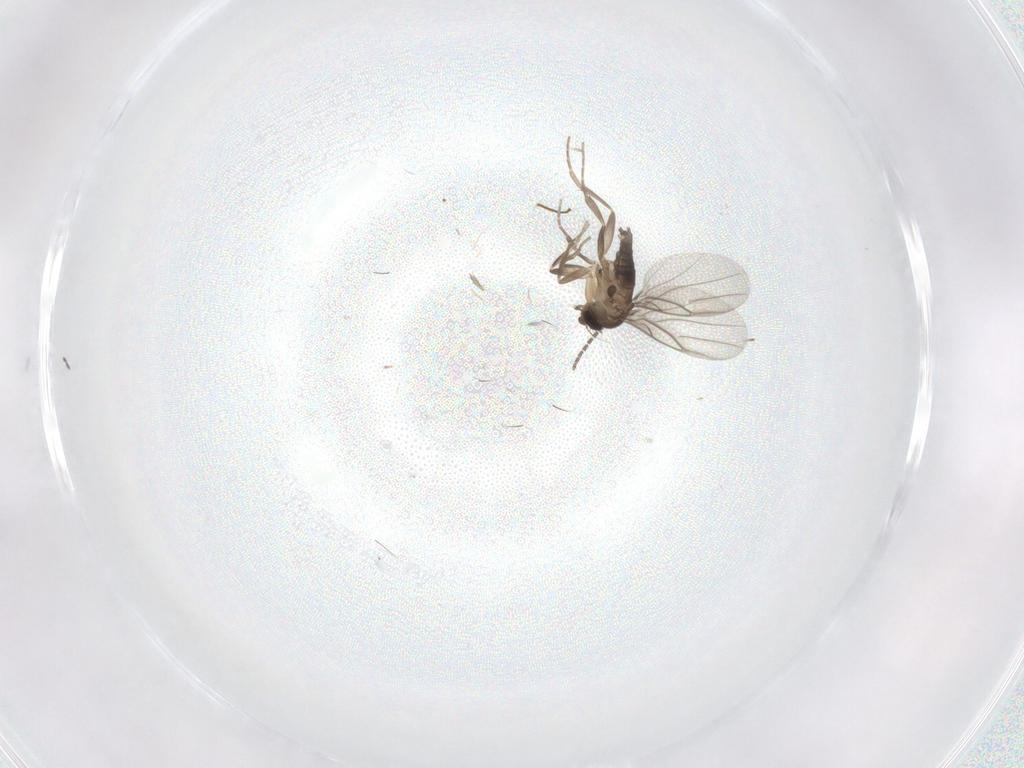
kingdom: Animalia
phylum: Arthropoda
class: Insecta
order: Diptera
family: Sciaridae
